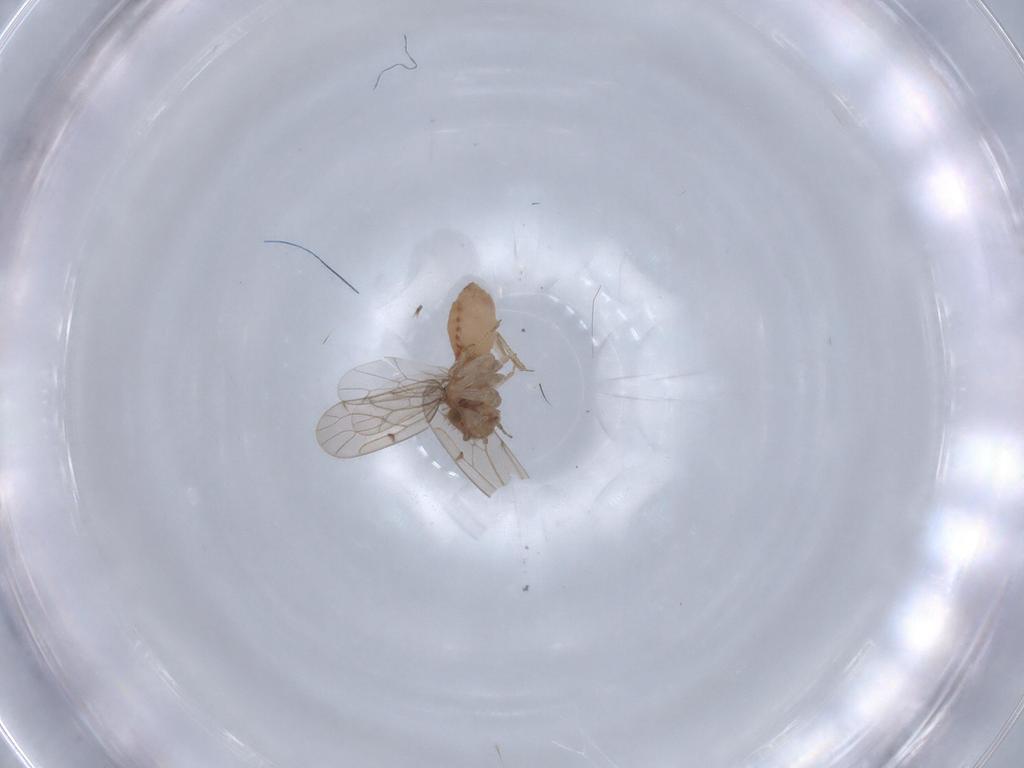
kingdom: Animalia
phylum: Arthropoda
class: Insecta
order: Psocodea
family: Ectopsocidae
